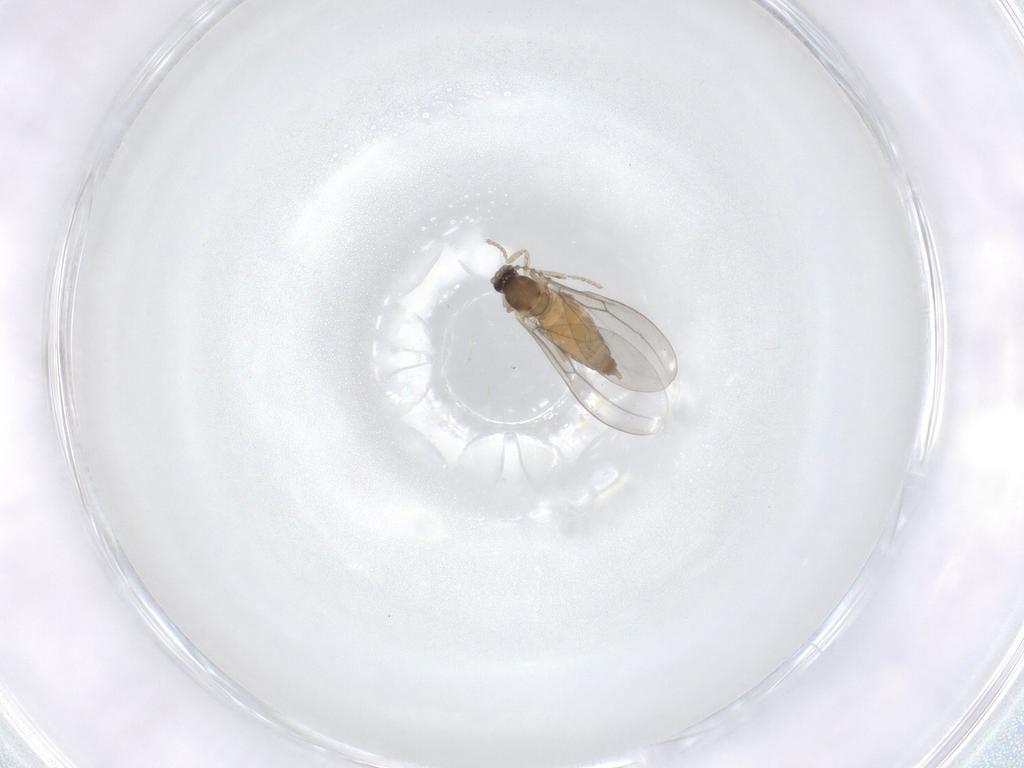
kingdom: Animalia
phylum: Arthropoda
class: Insecta
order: Diptera
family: Cecidomyiidae
